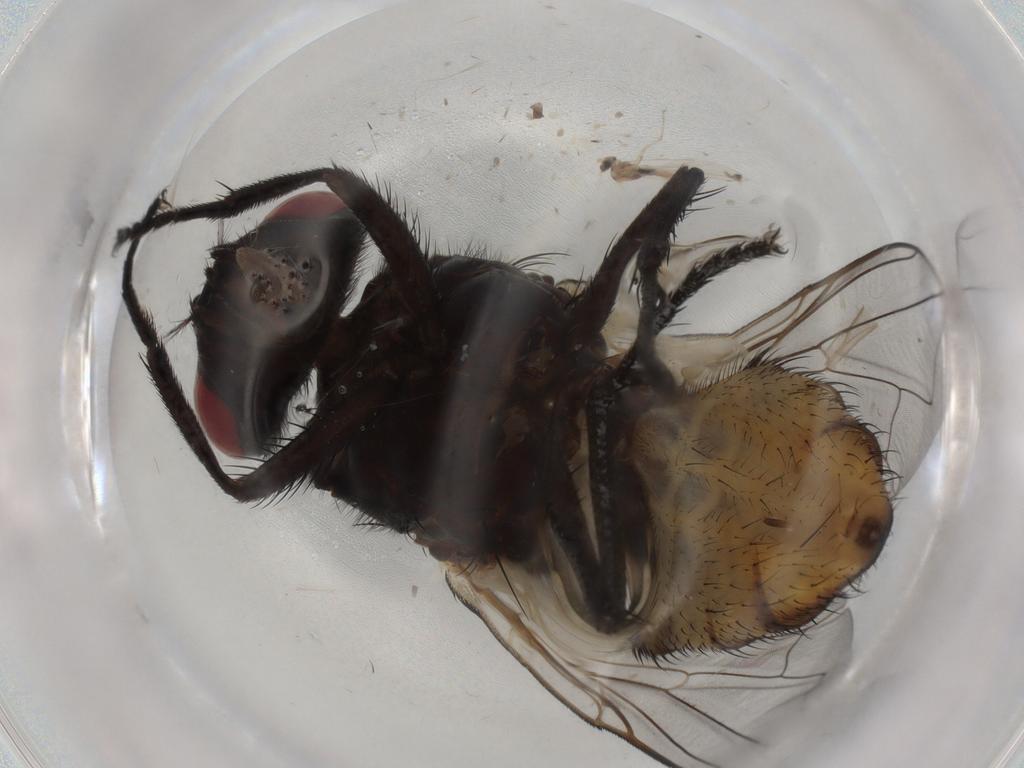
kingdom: Animalia
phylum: Arthropoda
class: Insecta
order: Diptera
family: Cecidomyiidae
